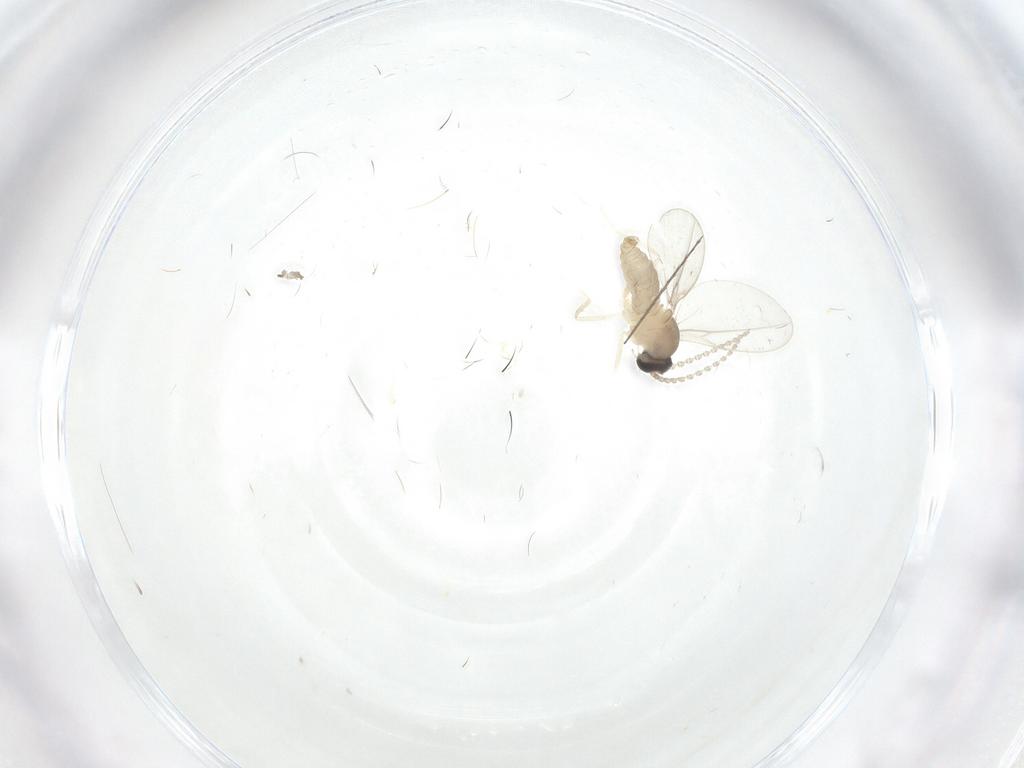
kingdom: Animalia
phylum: Arthropoda
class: Insecta
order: Diptera
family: Cecidomyiidae
